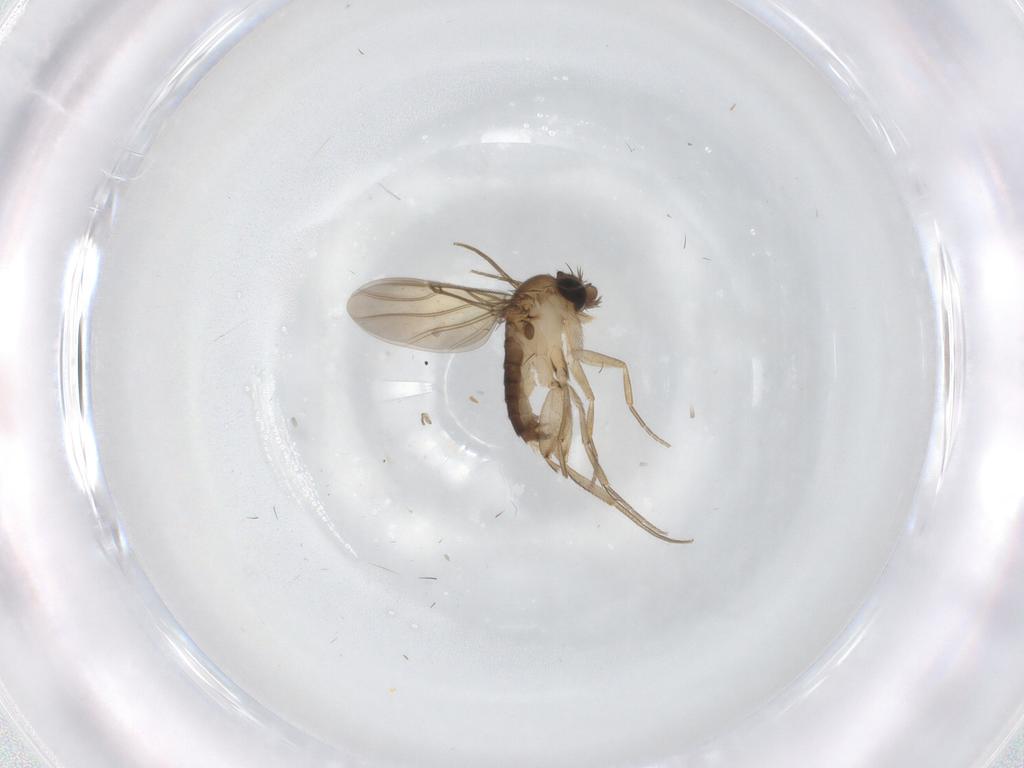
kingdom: Animalia
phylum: Arthropoda
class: Insecta
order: Diptera
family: Phoridae
